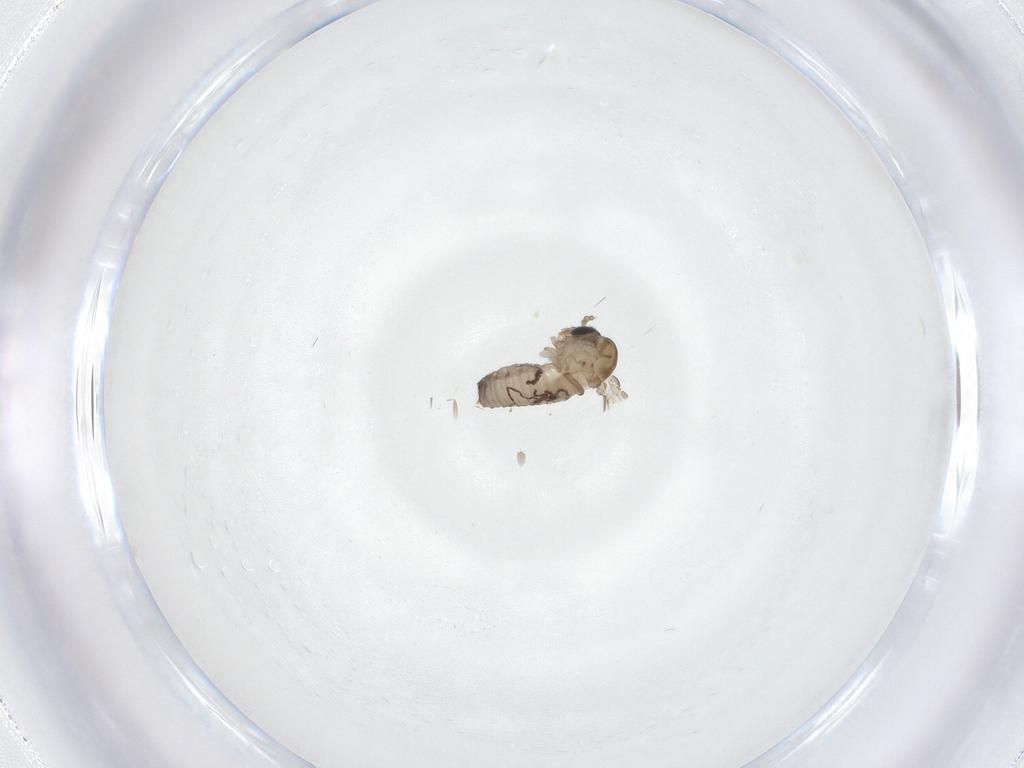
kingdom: Animalia
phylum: Arthropoda
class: Insecta
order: Diptera
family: Psychodidae
